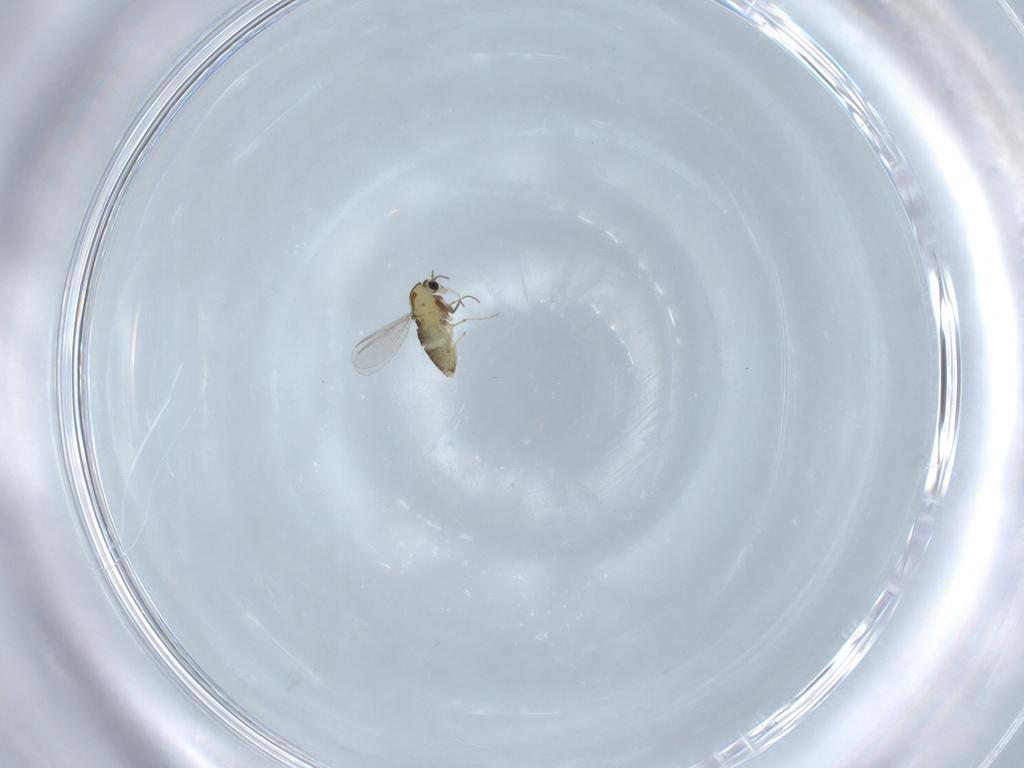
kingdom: Animalia
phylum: Arthropoda
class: Insecta
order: Diptera
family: Chironomidae
